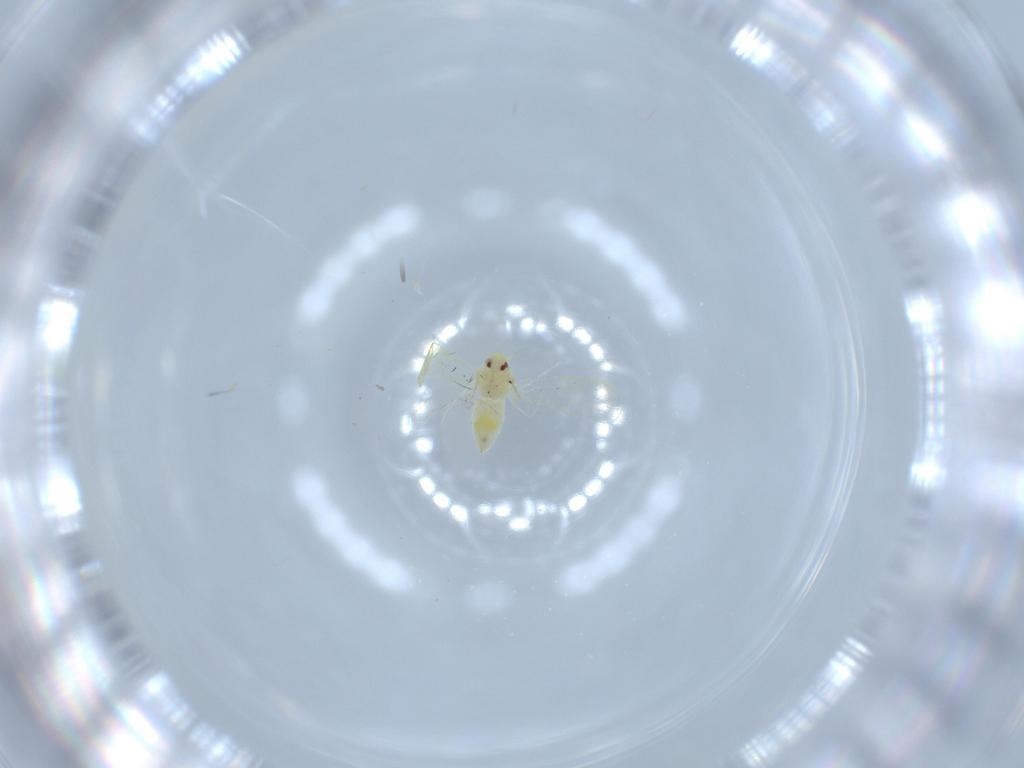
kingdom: Animalia
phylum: Arthropoda
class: Insecta
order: Hemiptera
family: Aleyrodidae
